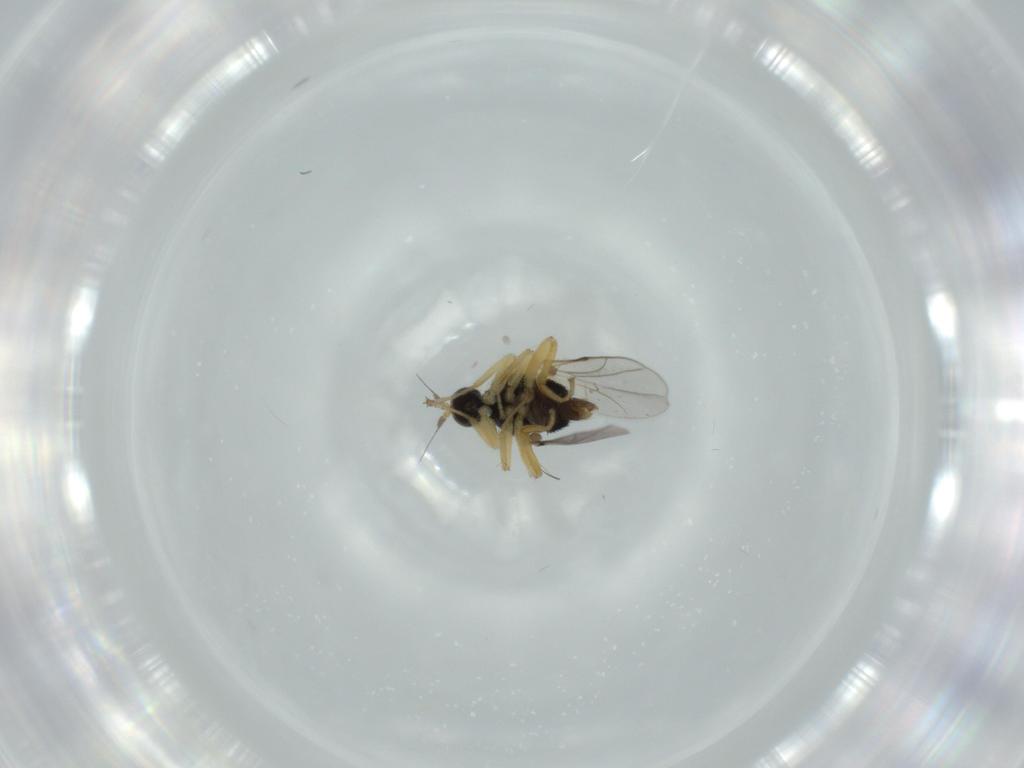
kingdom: Animalia
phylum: Arthropoda
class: Insecta
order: Diptera
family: Hybotidae
